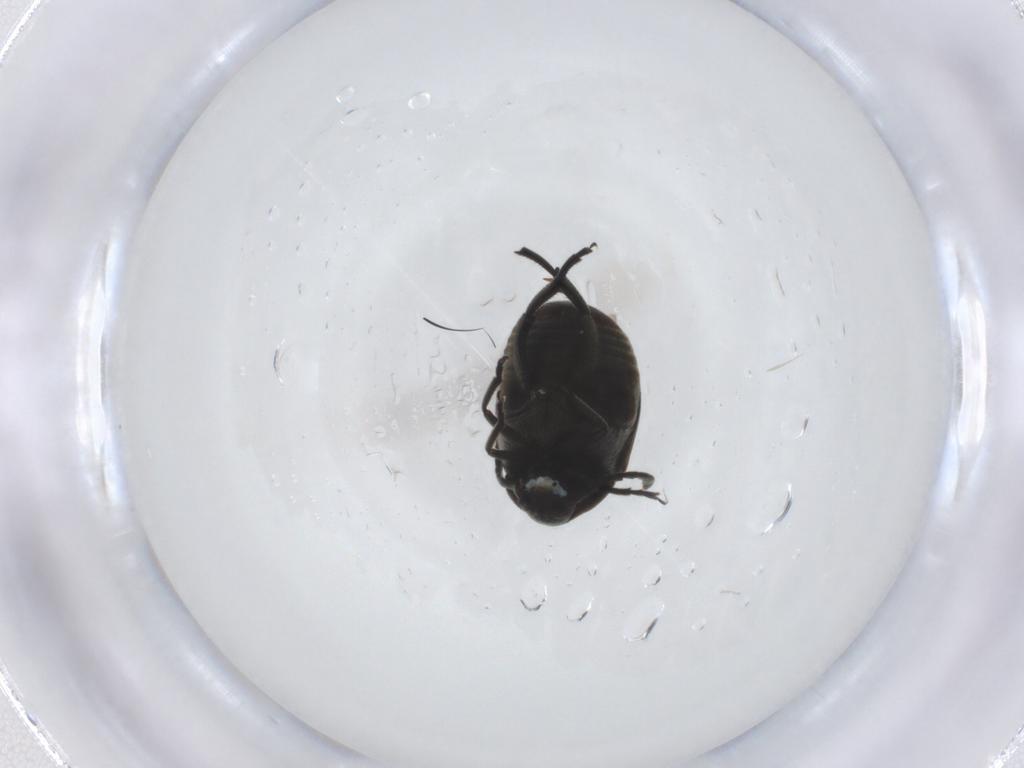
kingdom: Animalia
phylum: Arthropoda
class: Insecta
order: Coleoptera
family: Chrysomelidae
